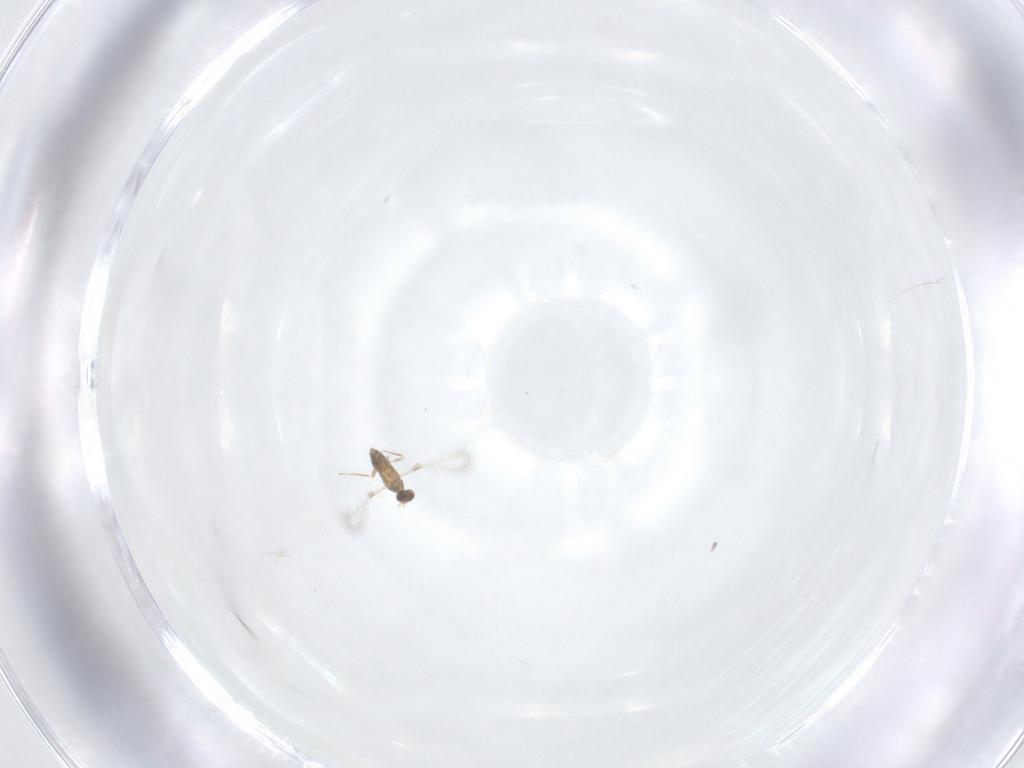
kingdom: Animalia
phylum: Arthropoda
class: Insecta
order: Hymenoptera
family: Mymaridae
